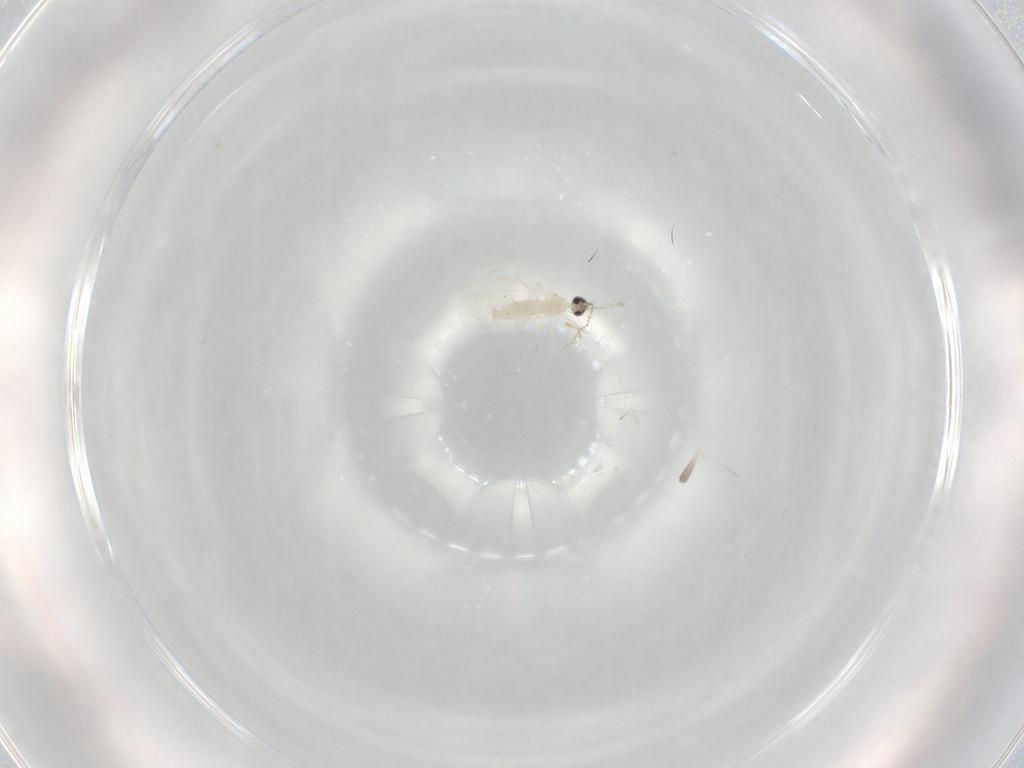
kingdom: Animalia
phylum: Arthropoda
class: Insecta
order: Diptera
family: Cecidomyiidae
